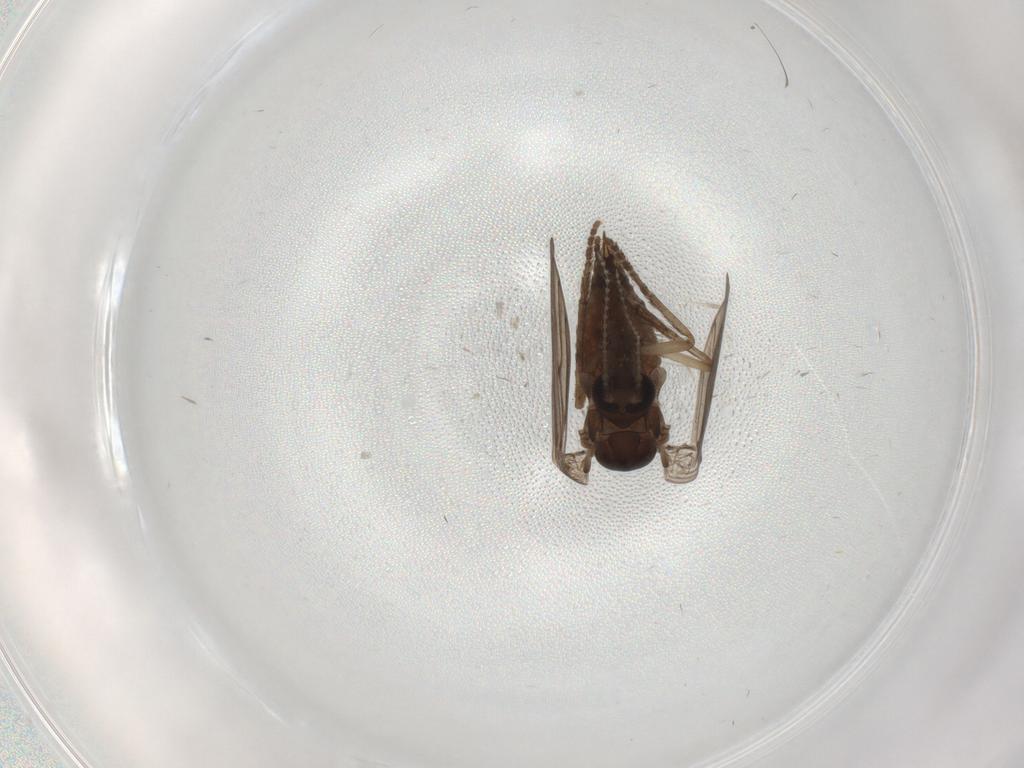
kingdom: Animalia
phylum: Arthropoda
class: Insecta
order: Diptera
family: Psychodidae
